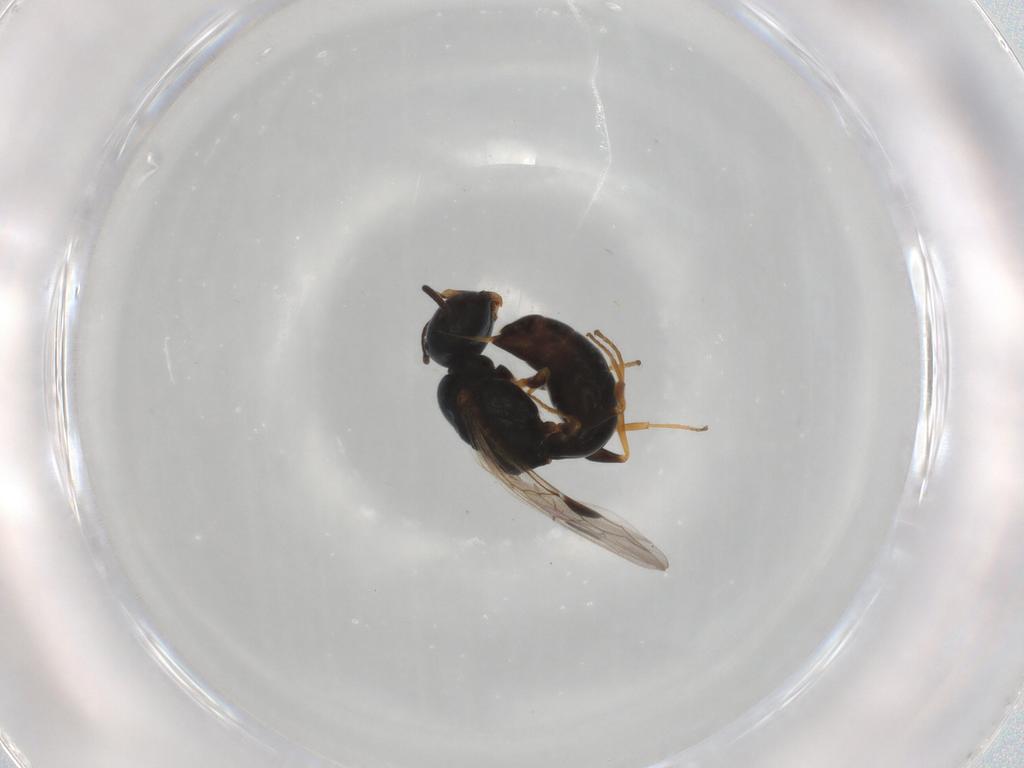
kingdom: Animalia
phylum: Arthropoda
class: Insecta
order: Hymenoptera
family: Crabronidae
